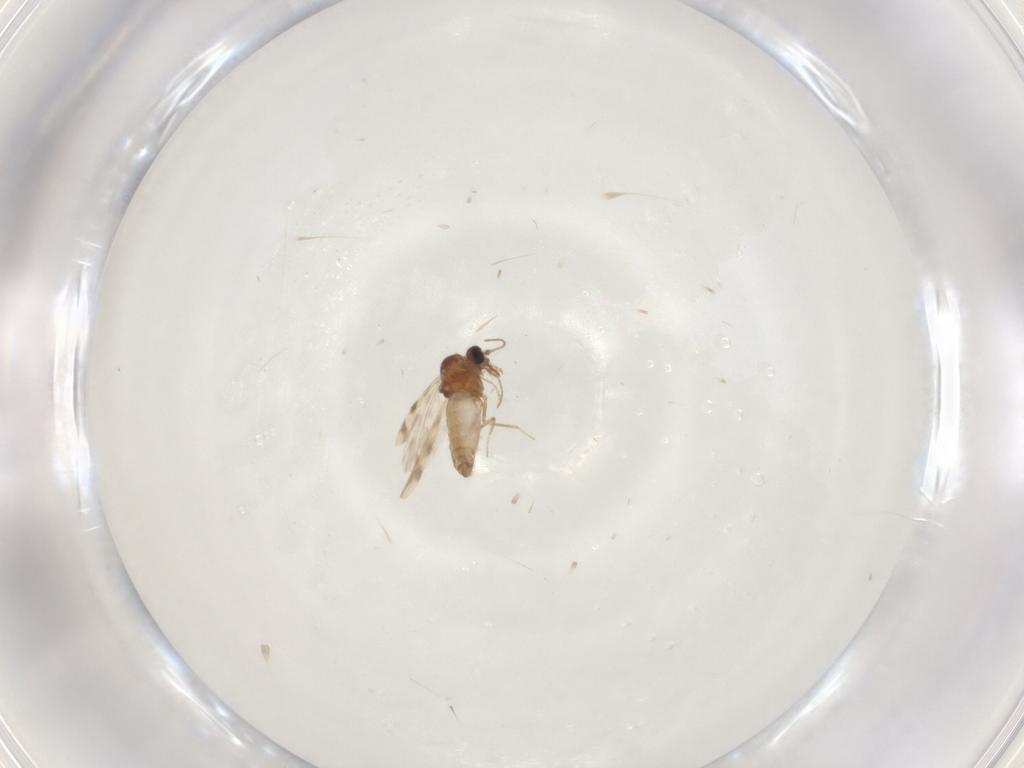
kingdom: Animalia
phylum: Arthropoda
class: Insecta
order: Diptera
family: Ceratopogonidae
